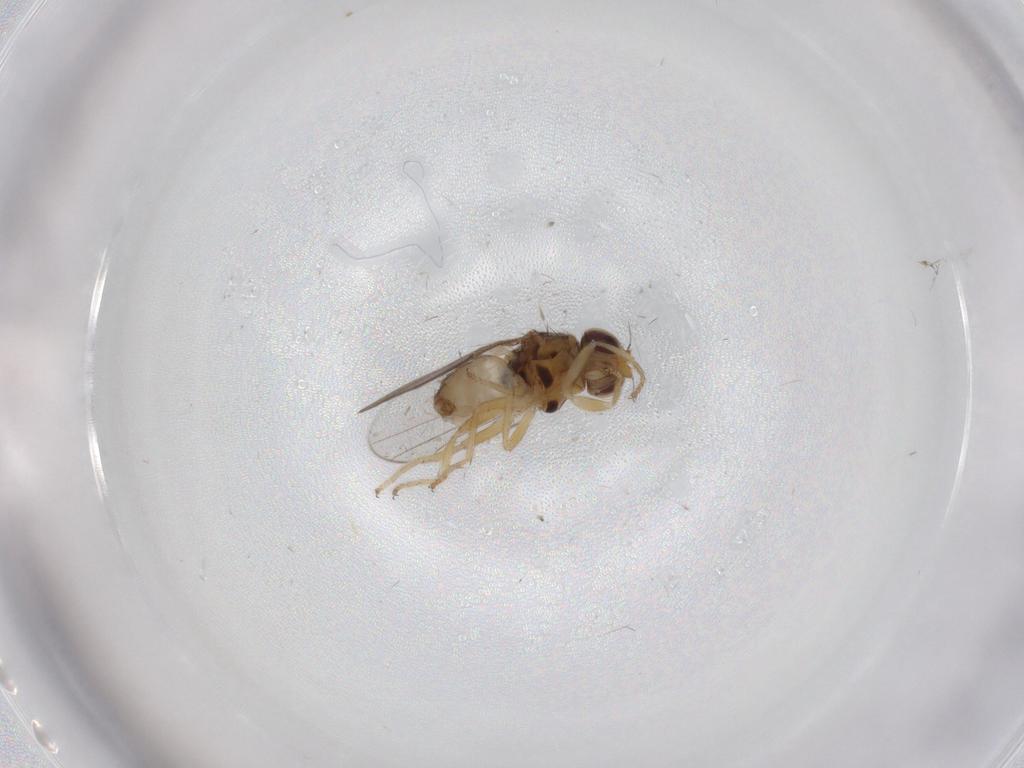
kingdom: Animalia
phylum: Arthropoda
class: Insecta
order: Diptera
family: Chloropidae
